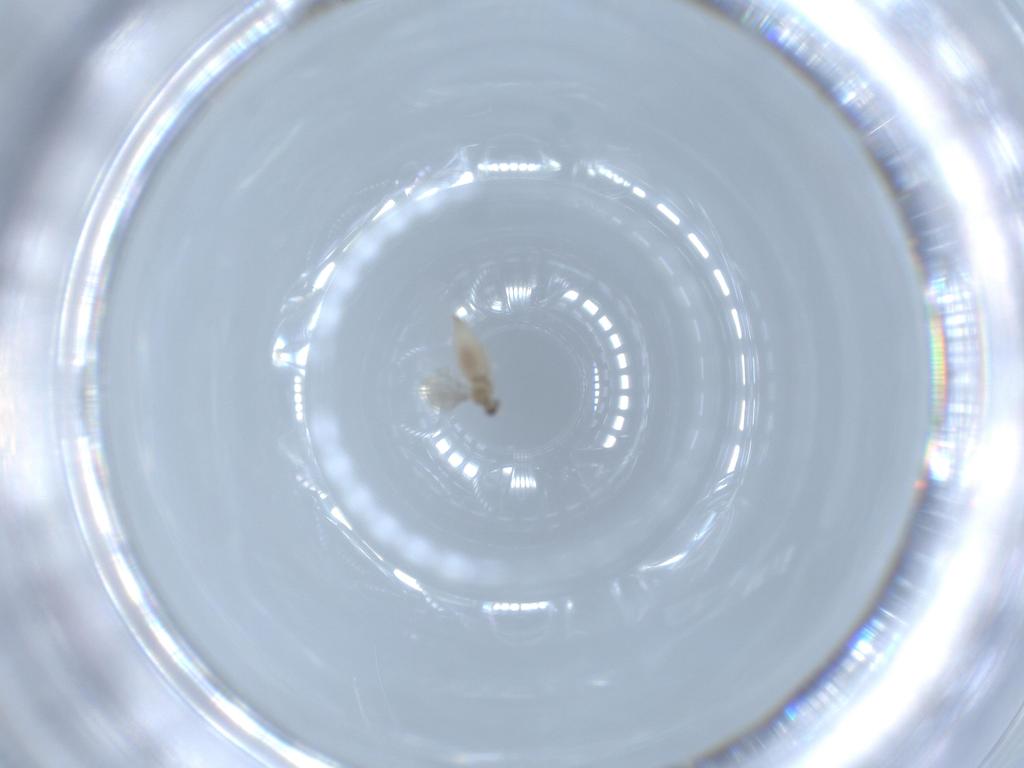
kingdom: Animalia
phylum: Arthropoda
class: Insecta
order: Diptera
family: Cecidomyiidae
